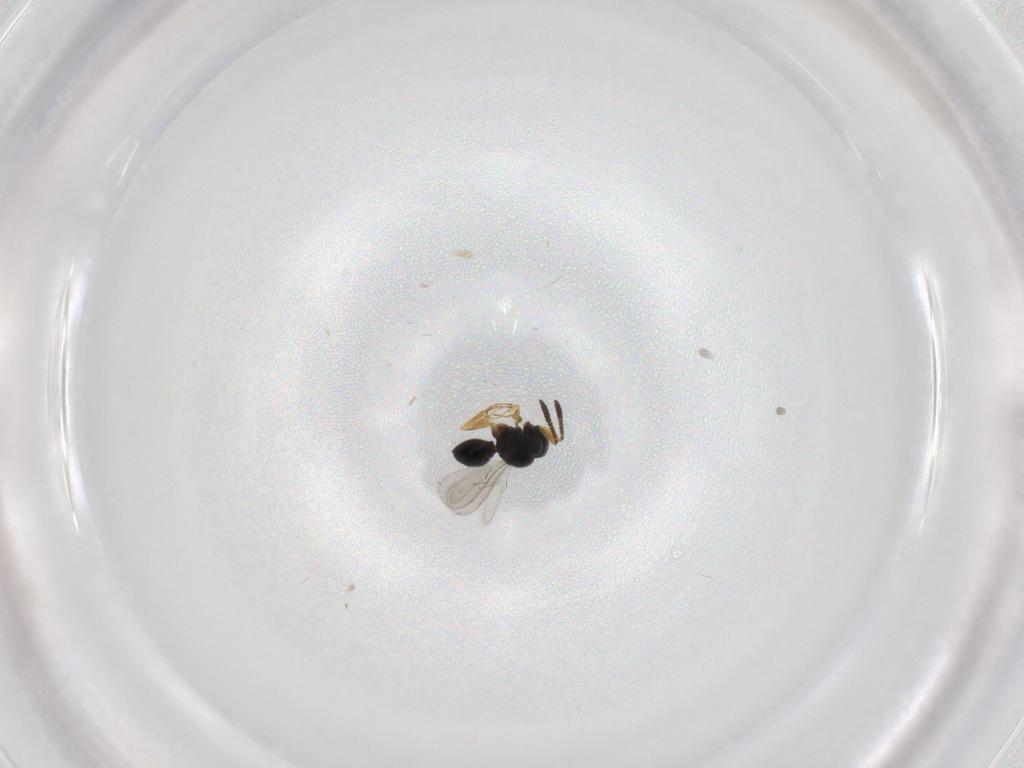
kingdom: Animalia
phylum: Arthropoda
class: Insecta
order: Hymenoptera
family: Scelionidae
